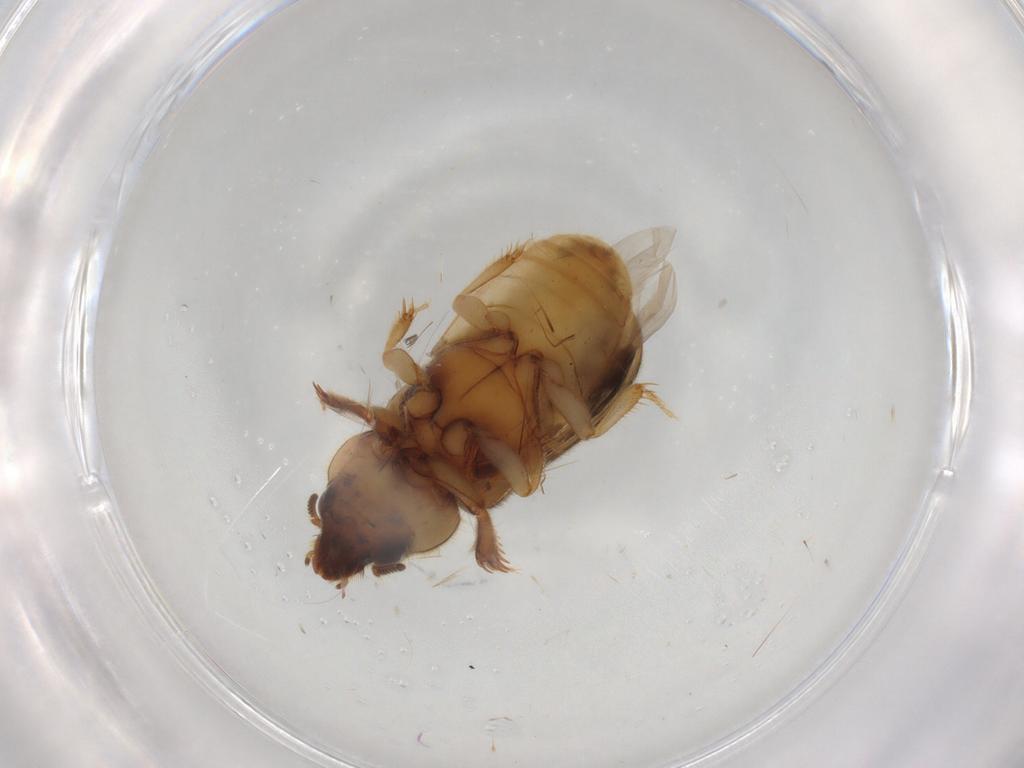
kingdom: Animalia
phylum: Arthropoda
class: Insecta
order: Coleoptera
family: Heteroceridae
